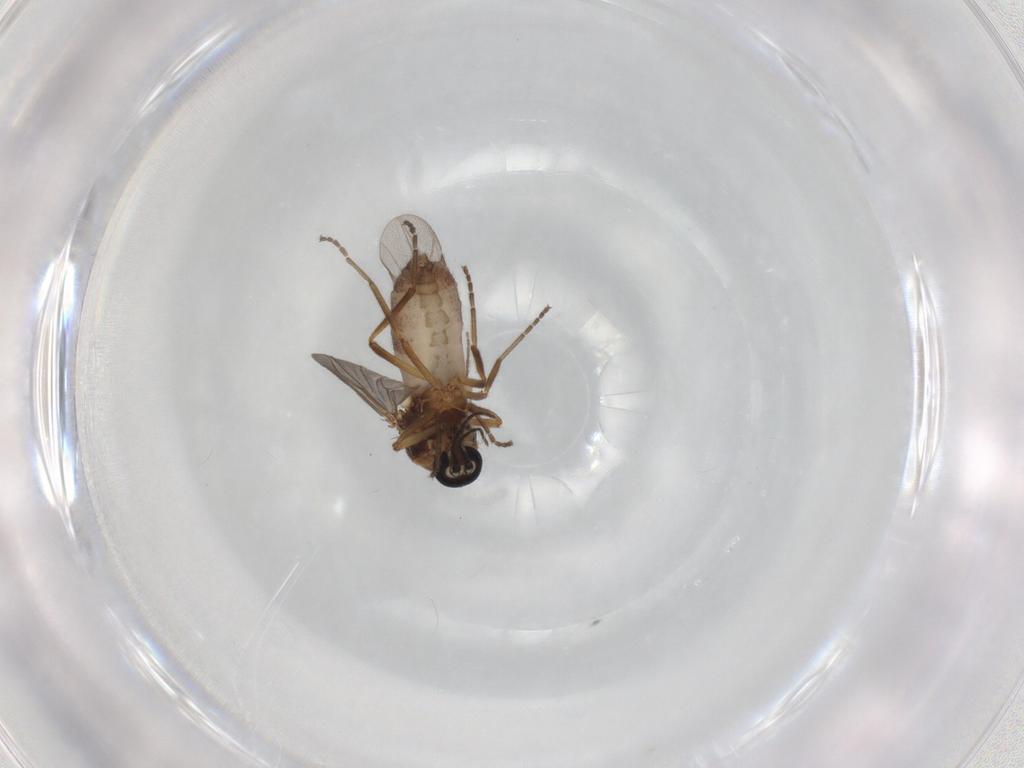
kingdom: Animalia
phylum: Arthropoda
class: Insecta
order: Diptera
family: Ceratopogonidae
